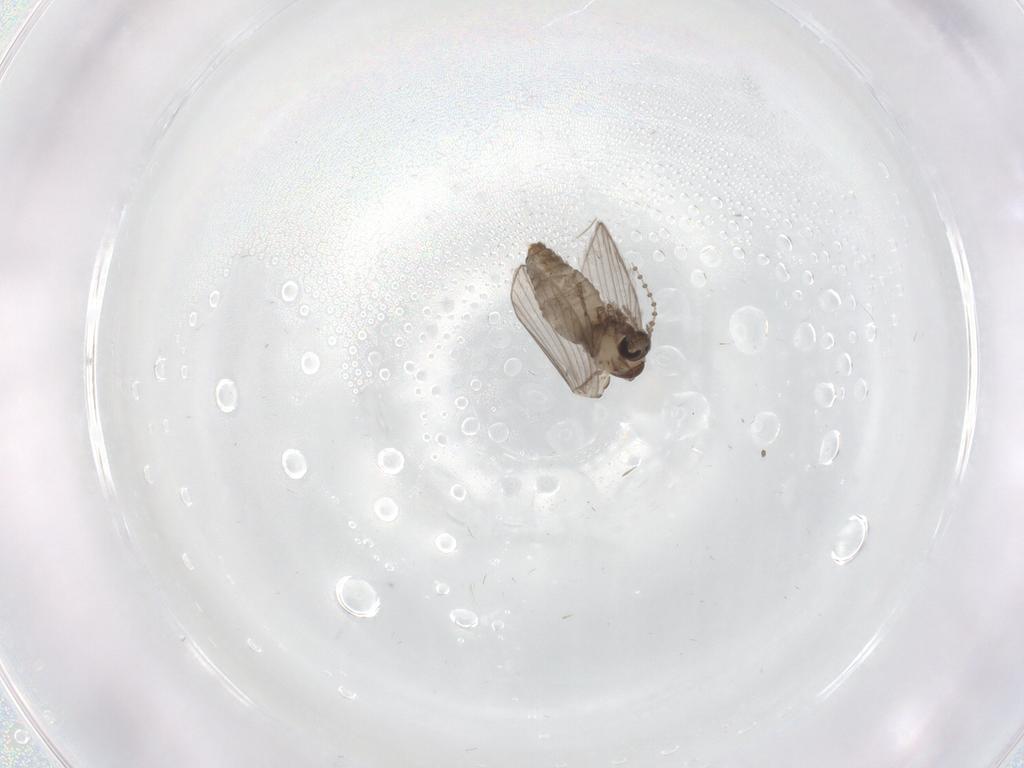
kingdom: Animalia
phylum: Arthropoda
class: Insecta
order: Diptera
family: Psychodidae
